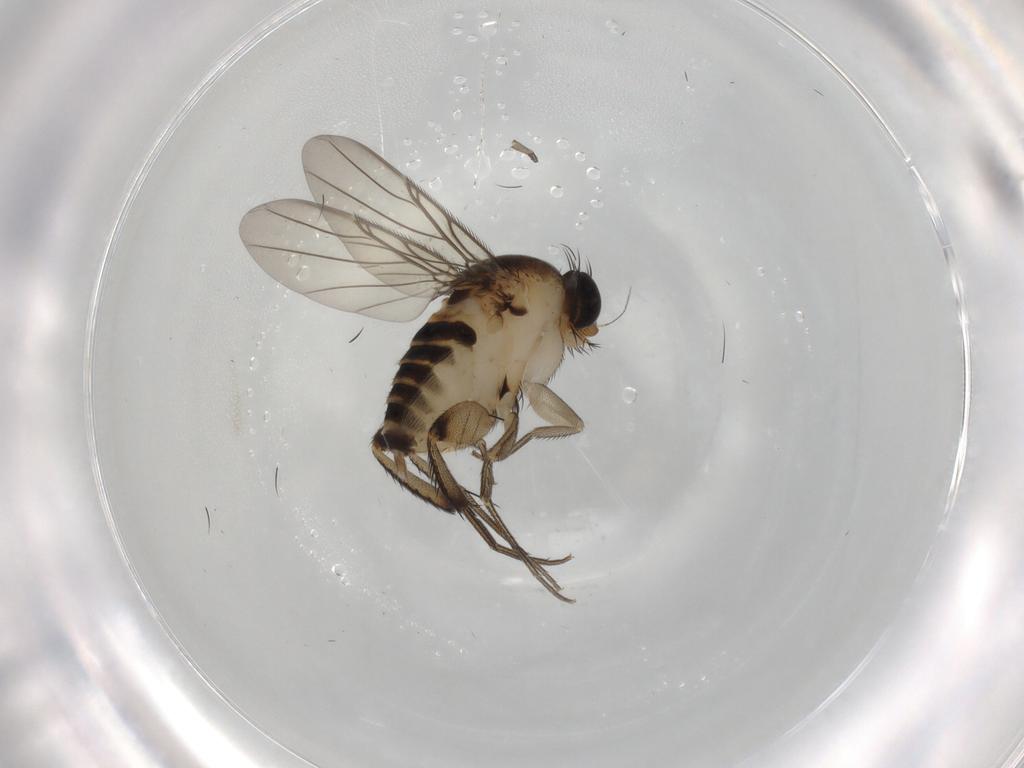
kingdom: Animalia
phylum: Arthropoda
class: Insecta
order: Diptera
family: Phoridae
